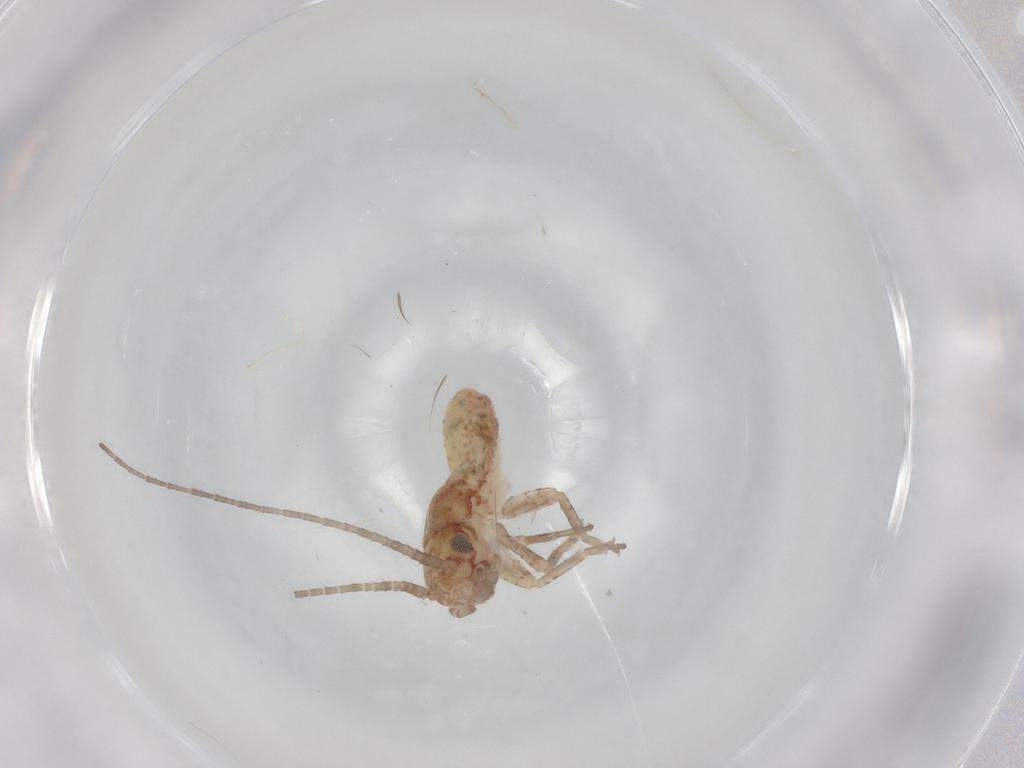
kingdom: Animalia
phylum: Arthropoda
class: Insecta
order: Orthoptera
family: Mogoplistidae
